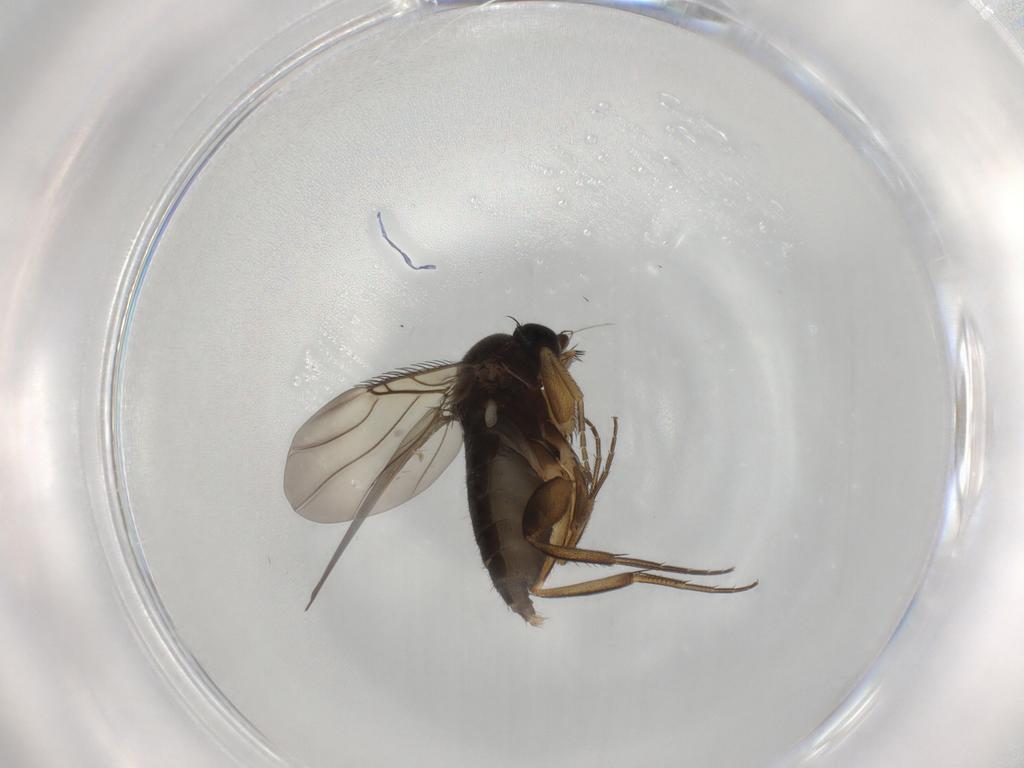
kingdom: Animalia
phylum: Arthropoda
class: Insecta
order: Diptera
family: Phoridae
